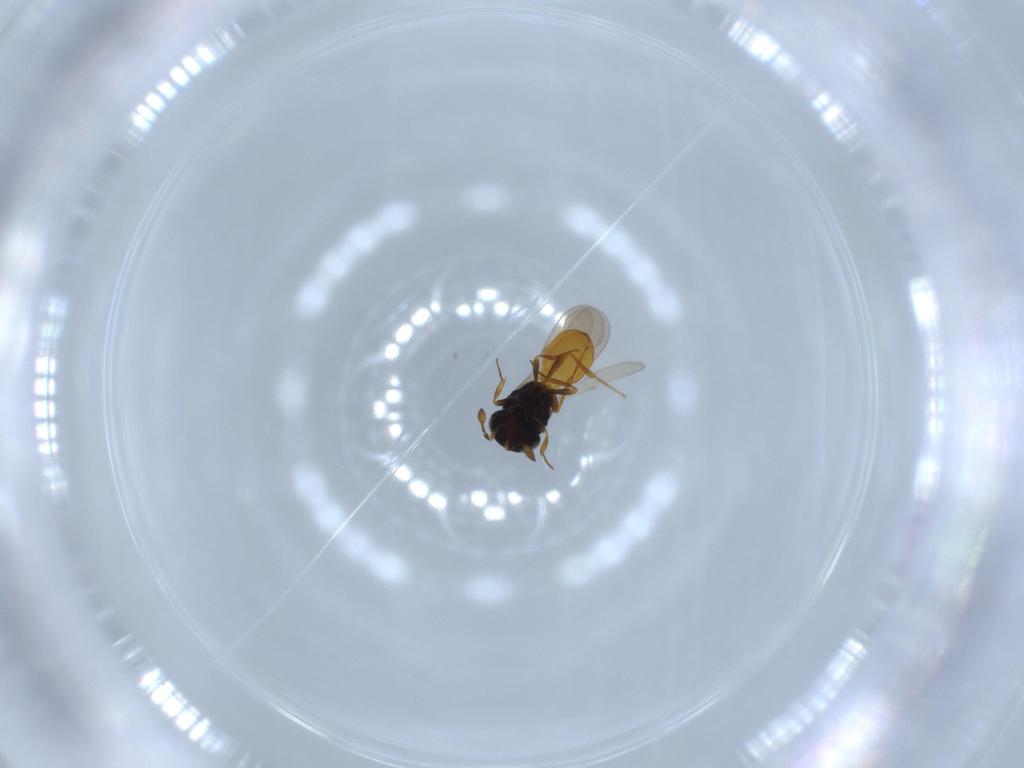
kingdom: Animalia
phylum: Arthropoda
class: Insecta
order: Hymenoptera
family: Scelionidae
